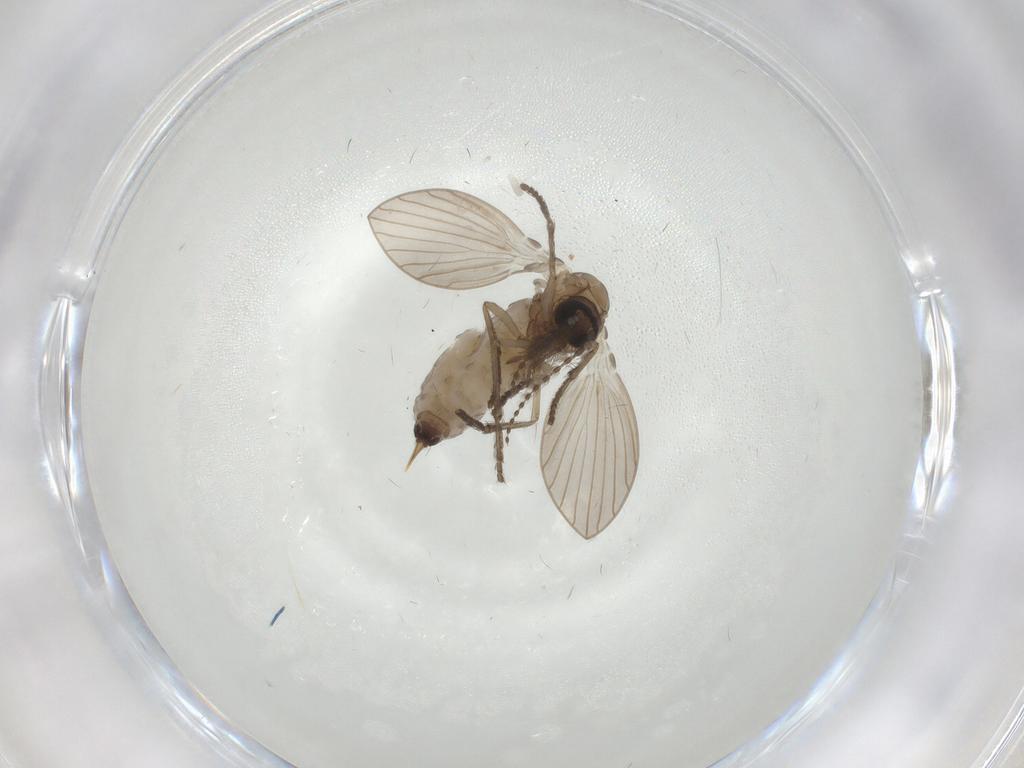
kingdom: Animalia
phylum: Arthropoda
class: Insecta
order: Diptera
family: Psychodidae
